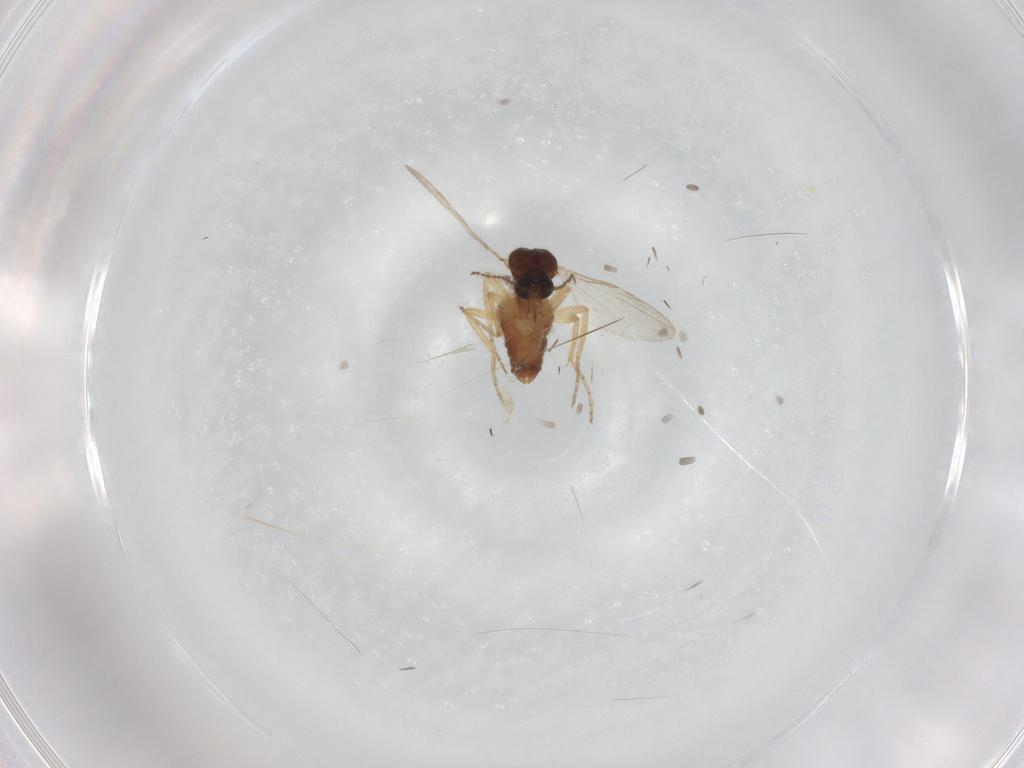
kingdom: Animalia
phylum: Arthropoda
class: Insecta
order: Diptera
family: Ceratopogonidae
